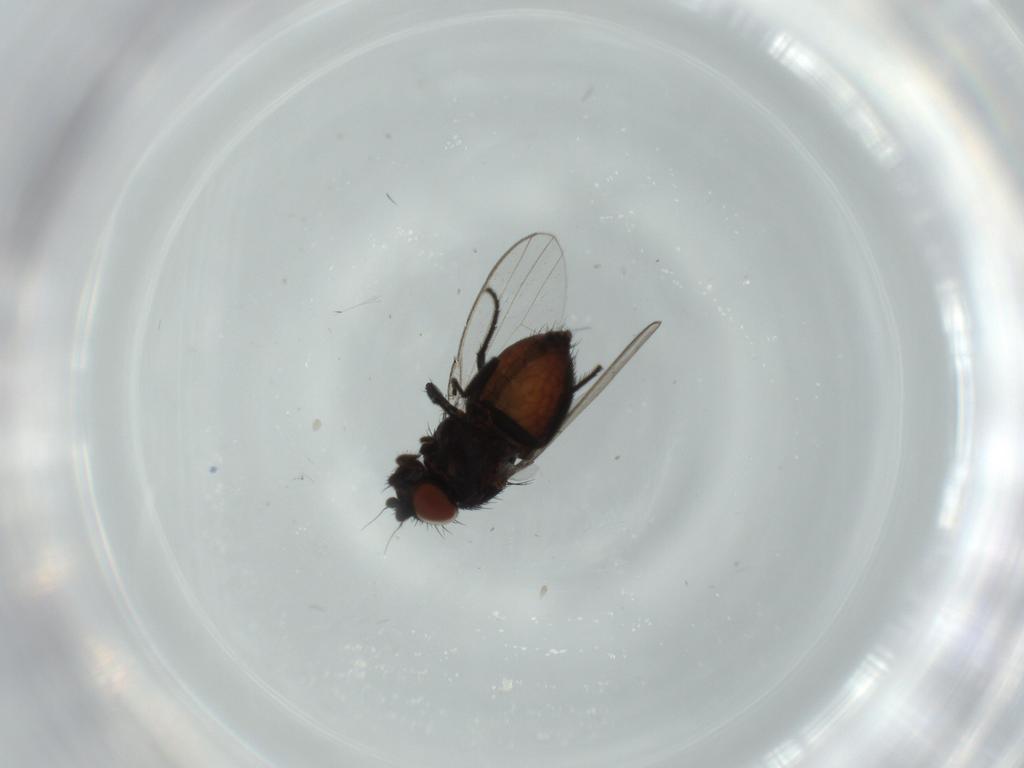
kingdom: Animalia
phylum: Arthropoda
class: Insecta
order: Diptera
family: Milichiidae
